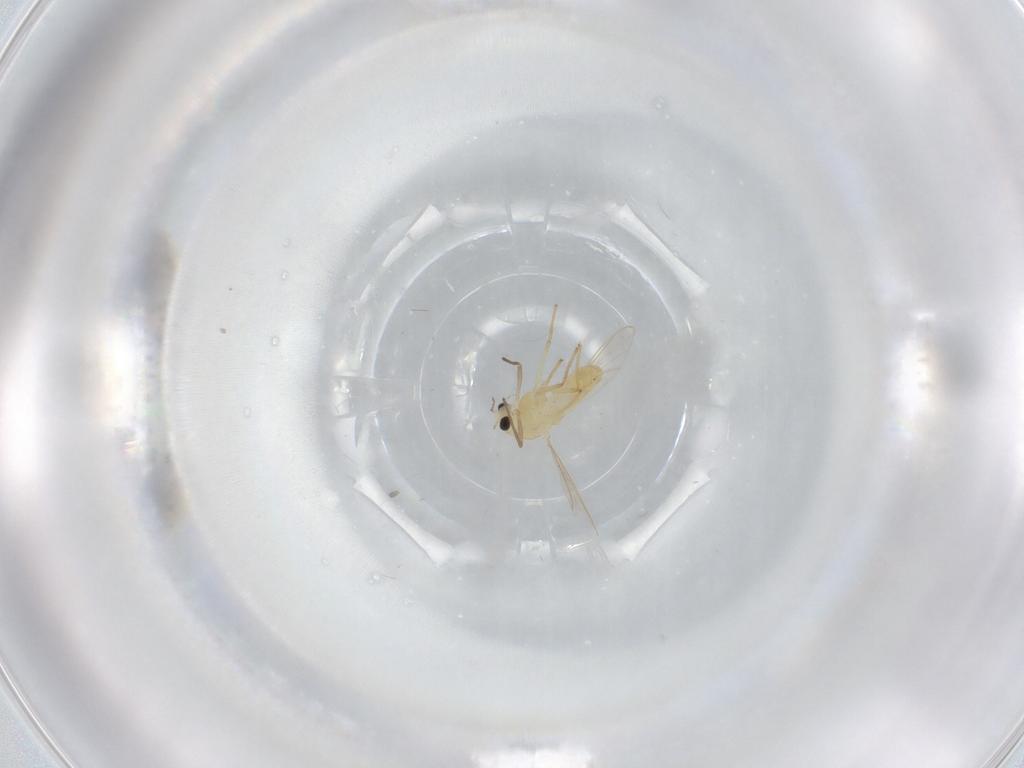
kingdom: Animalia
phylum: Arthropoda
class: Insecta
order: Diptera
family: Chironomidae
